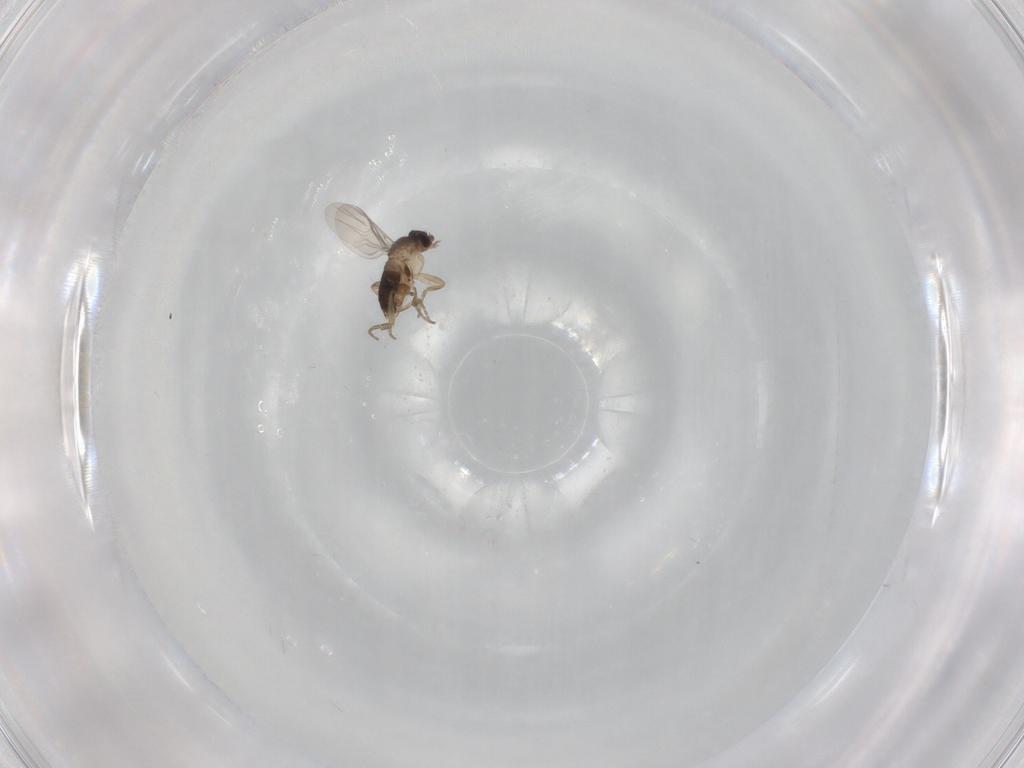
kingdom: Animalia
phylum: Arthropoda
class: Insecta
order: Diptera
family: Phoridae
